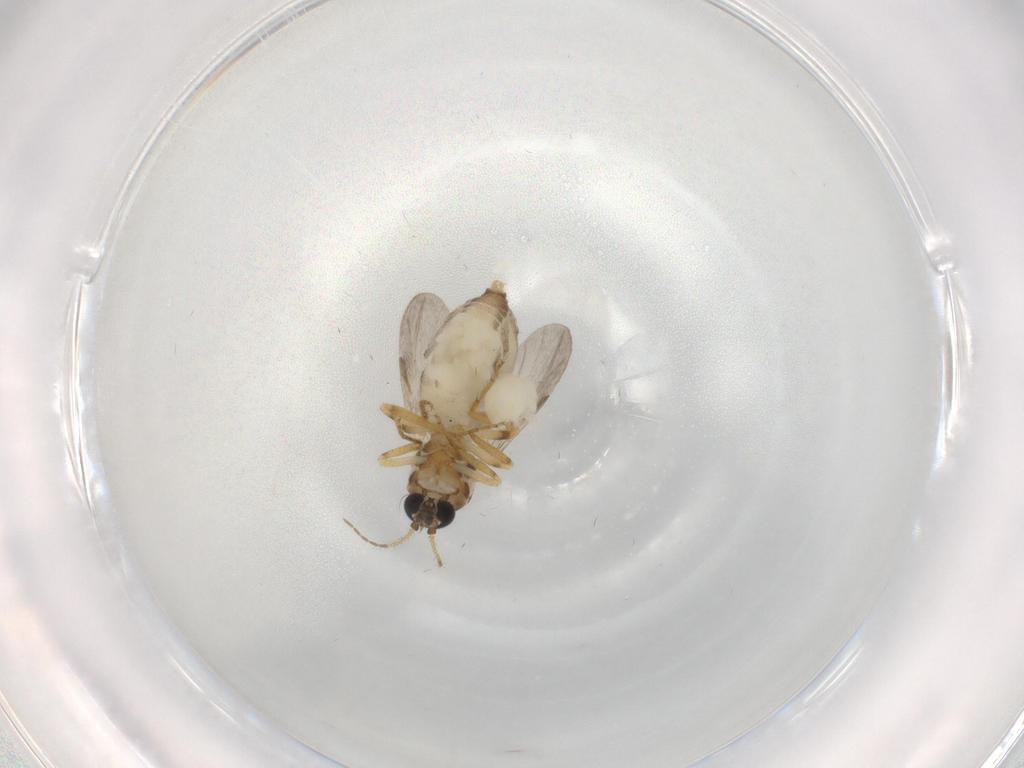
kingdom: Animalia
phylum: Arthropoda
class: Insecta
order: Diptera
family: Ceratopogonidae
